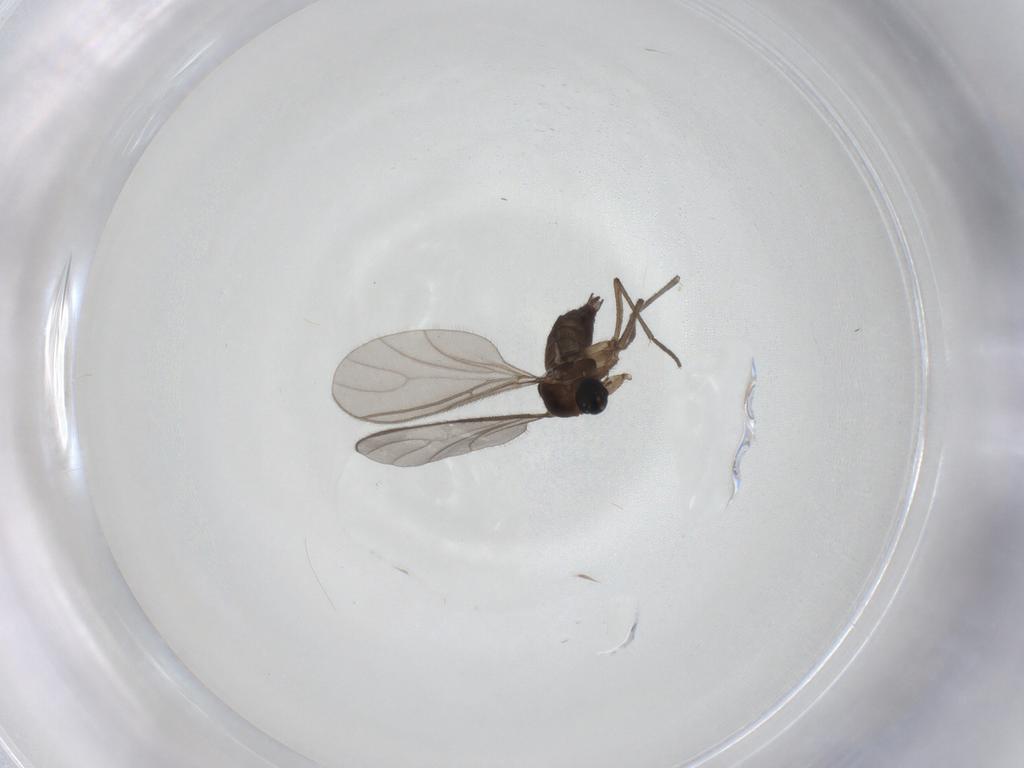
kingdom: Animalia
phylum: Arthropoda
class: Insecta
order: Diptera
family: Sciaridae
